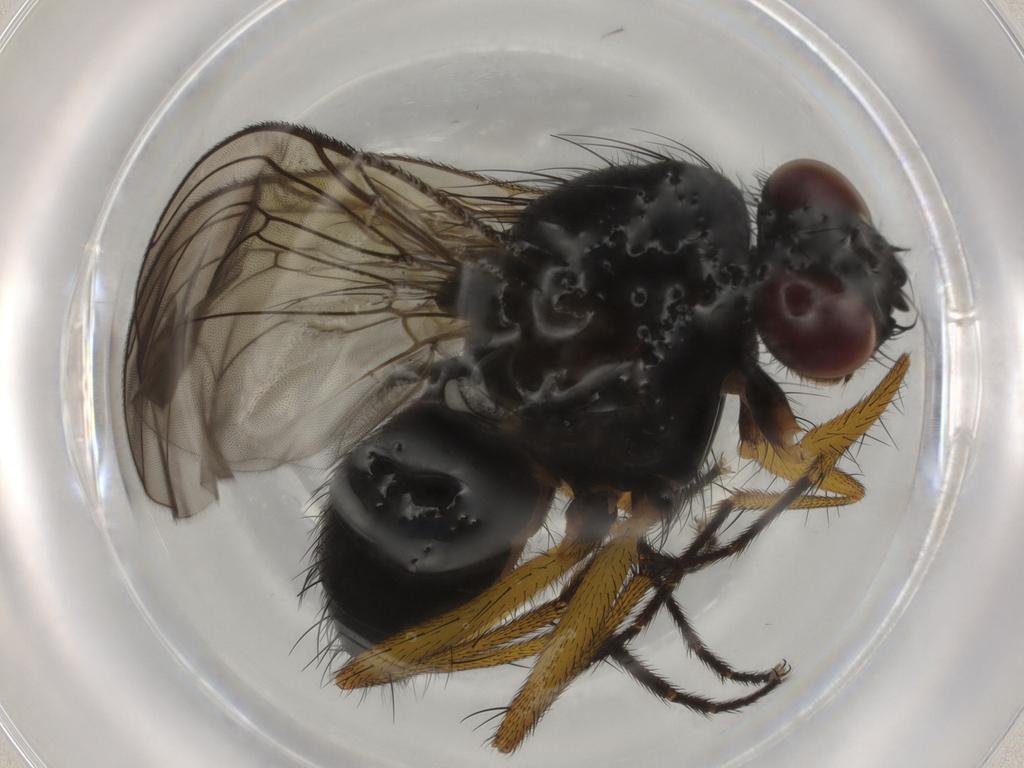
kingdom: Animalia
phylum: Arthropoda
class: Insecta
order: Diptera
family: Muscidae
